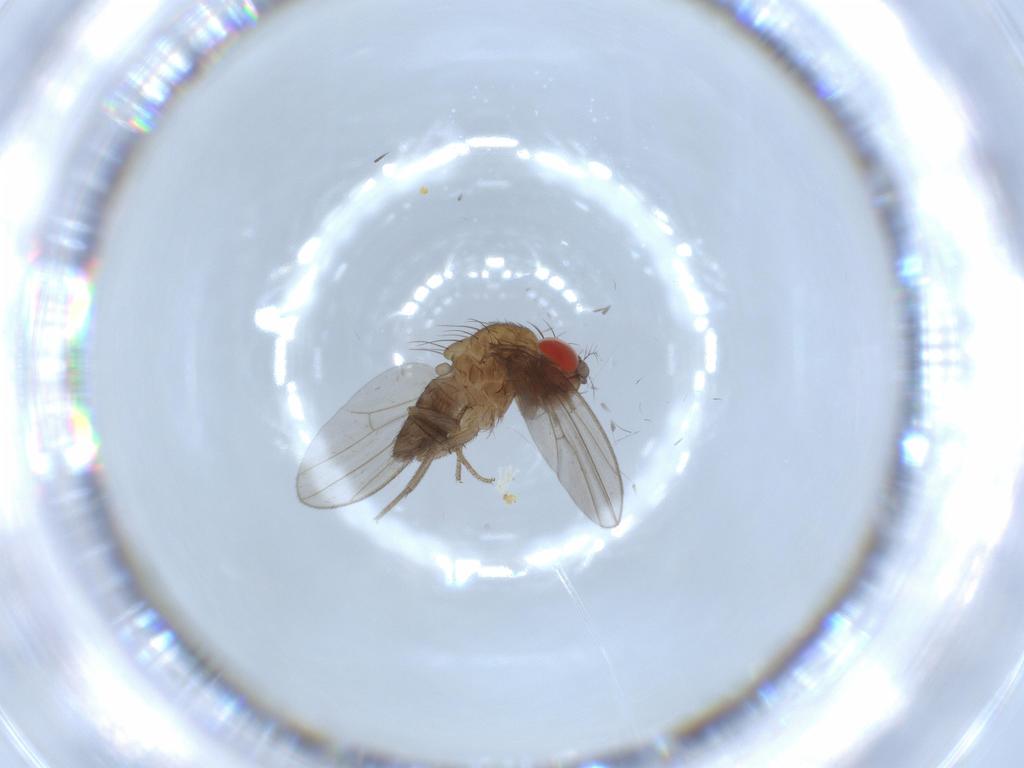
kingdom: Animalia
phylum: Arthropoda
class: Insecta
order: Diptera
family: Drosophilidae
